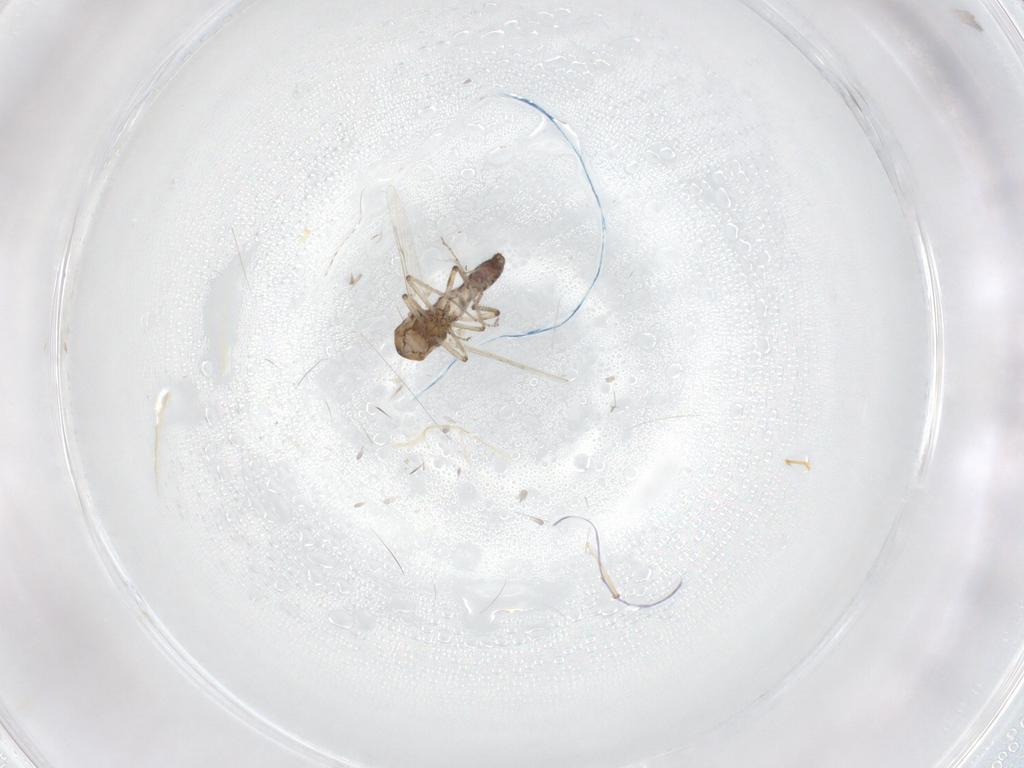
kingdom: Animalia
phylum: Arthropoda
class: Insecta
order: Diptera
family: Ceratopogonidae
